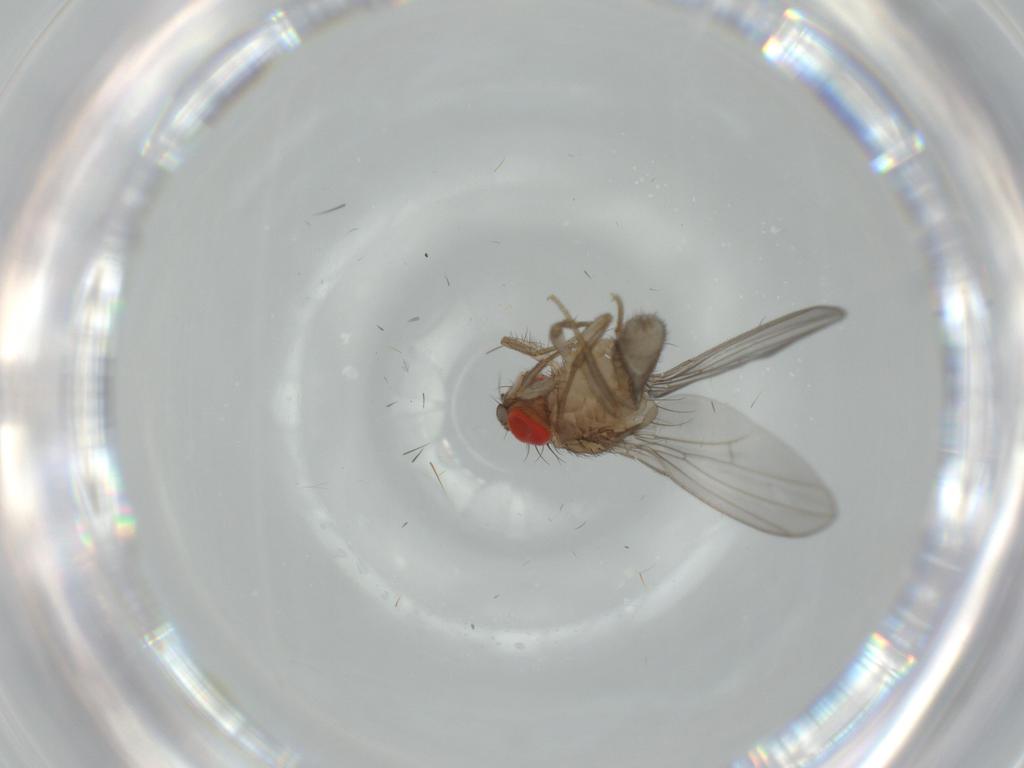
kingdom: Animalia
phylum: Arthropoda
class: Insecta
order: Diptera
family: Drosophilidae
